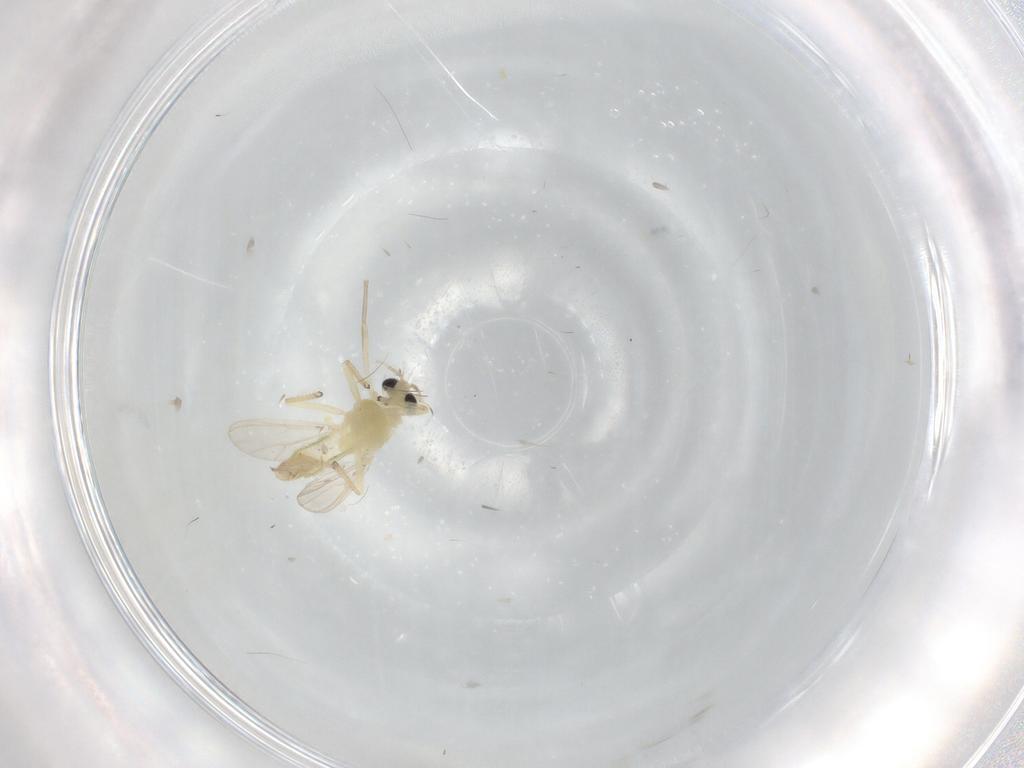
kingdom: Animalia
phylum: Arthropoda
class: Insecta
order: Diptera
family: Chironomidae
